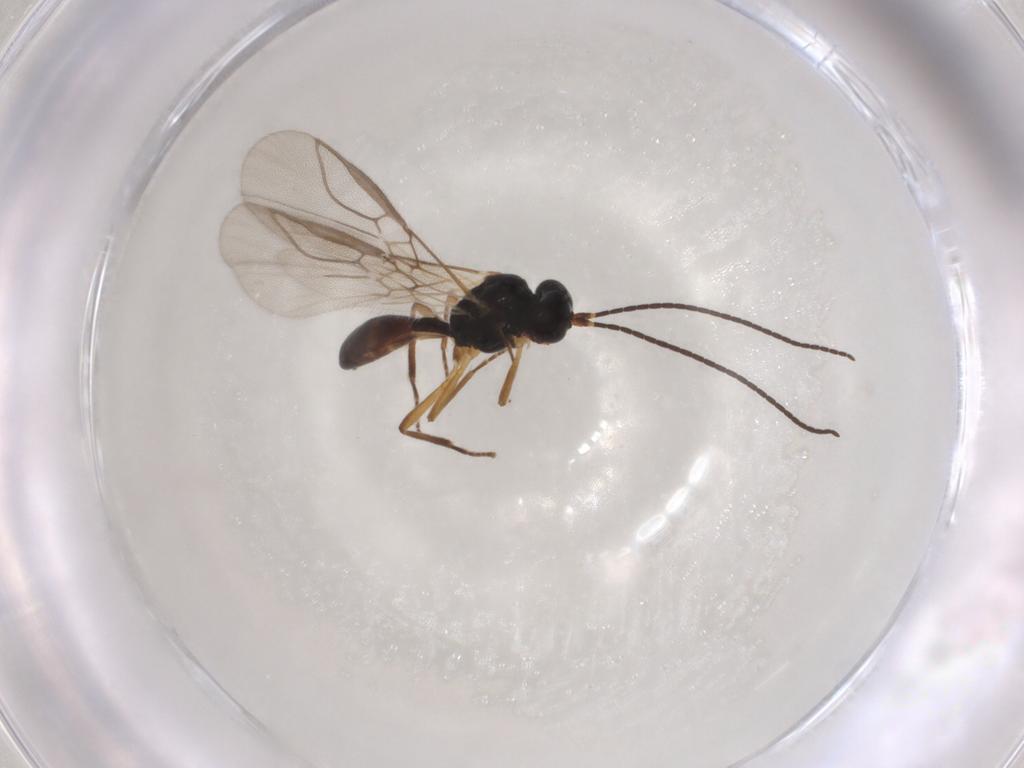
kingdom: Animalia
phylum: Arthropoda
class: Insecta
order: Hymenoptera
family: Braconidae
